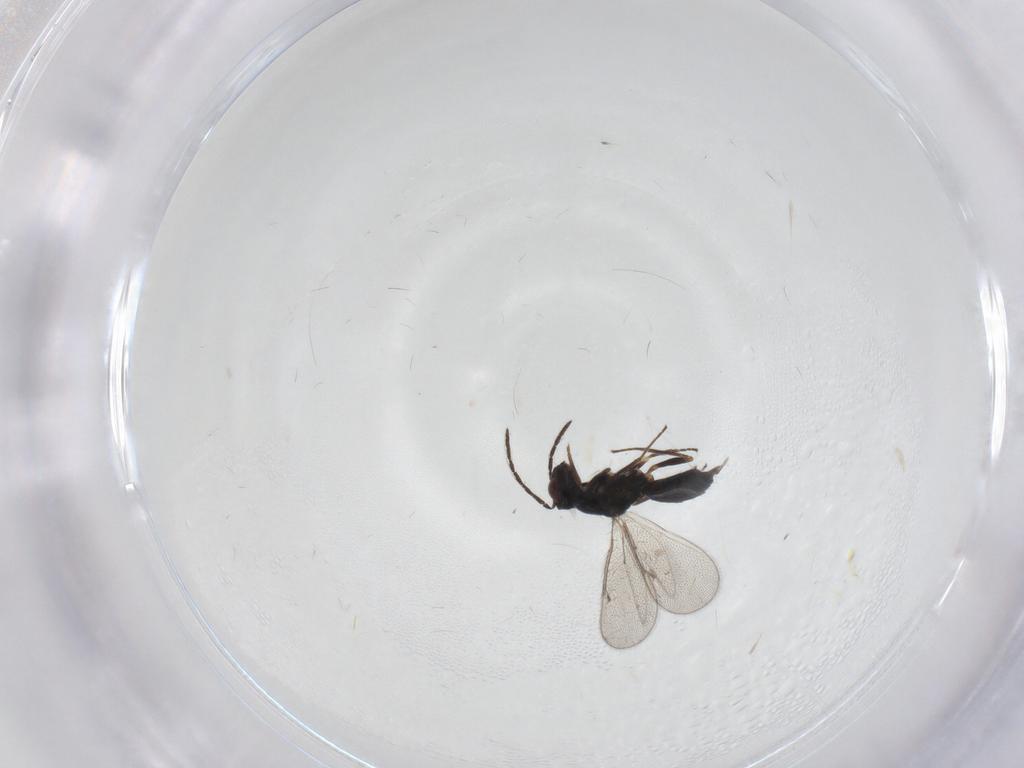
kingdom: Animalia
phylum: Arthropoda
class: Insecta
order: Hymenoptera
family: Eulophidae
